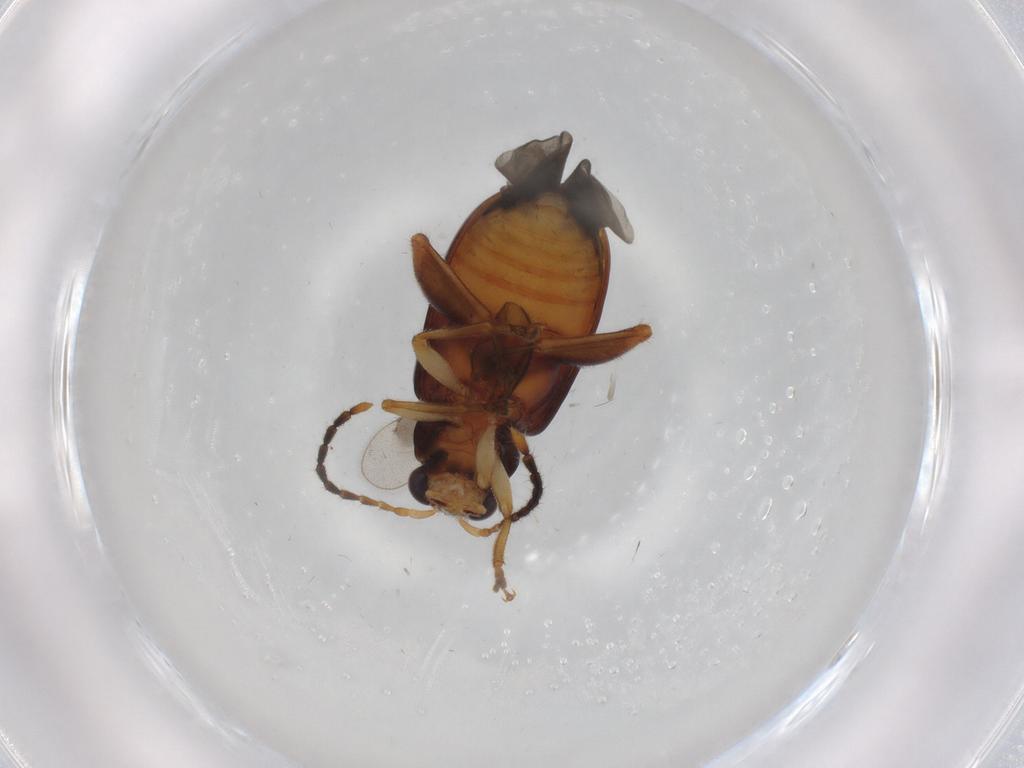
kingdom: Animalia
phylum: Arthropoda
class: Insecta
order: Coleoptera
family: Chrysomelidae
